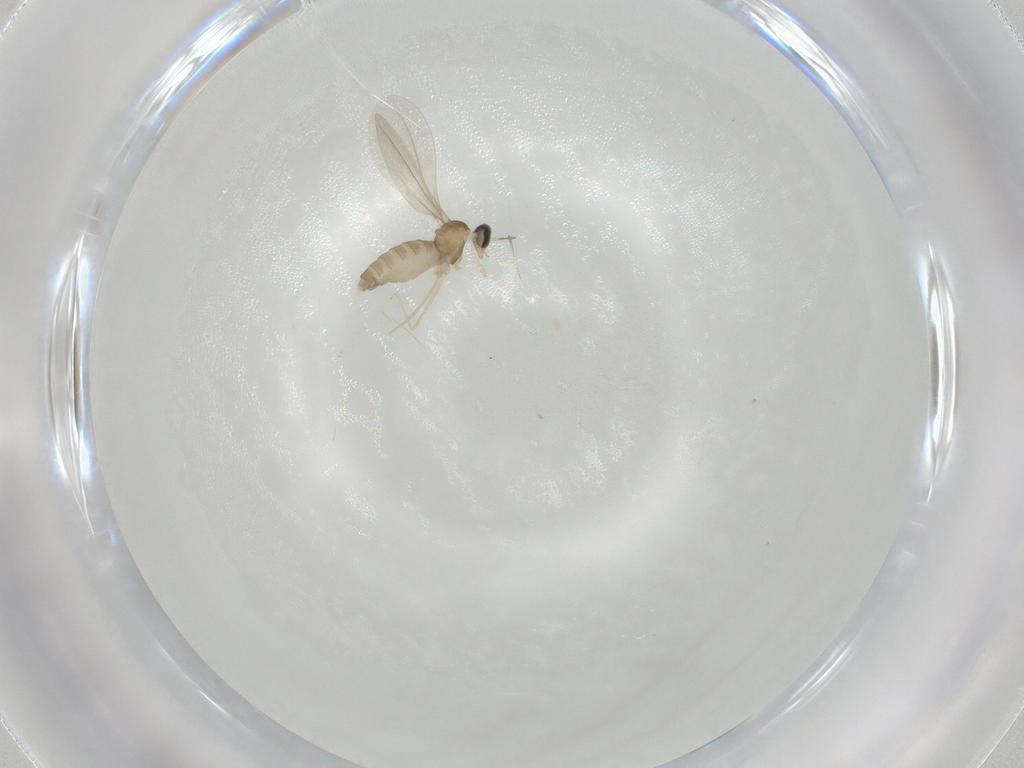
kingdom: Animalia
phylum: Arthropoda
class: Insecta
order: Diptera
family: Cecidomyiidae
